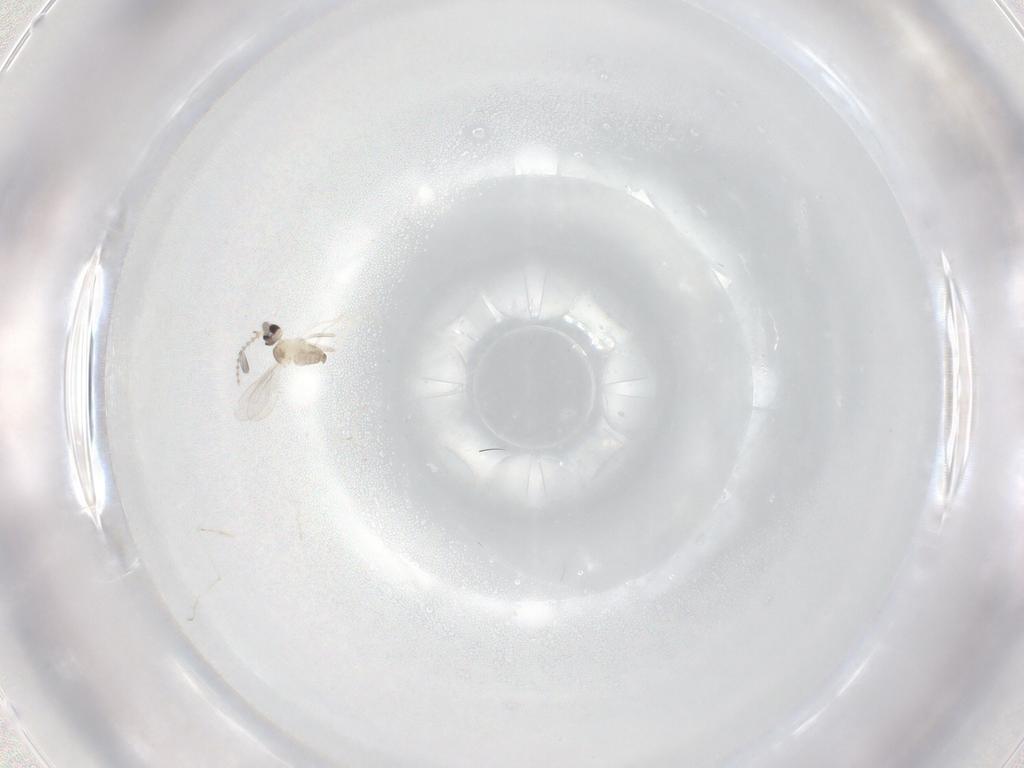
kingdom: Animalia
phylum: Arthropoda
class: Insecta
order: Diptera
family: Cecidomyiidae
